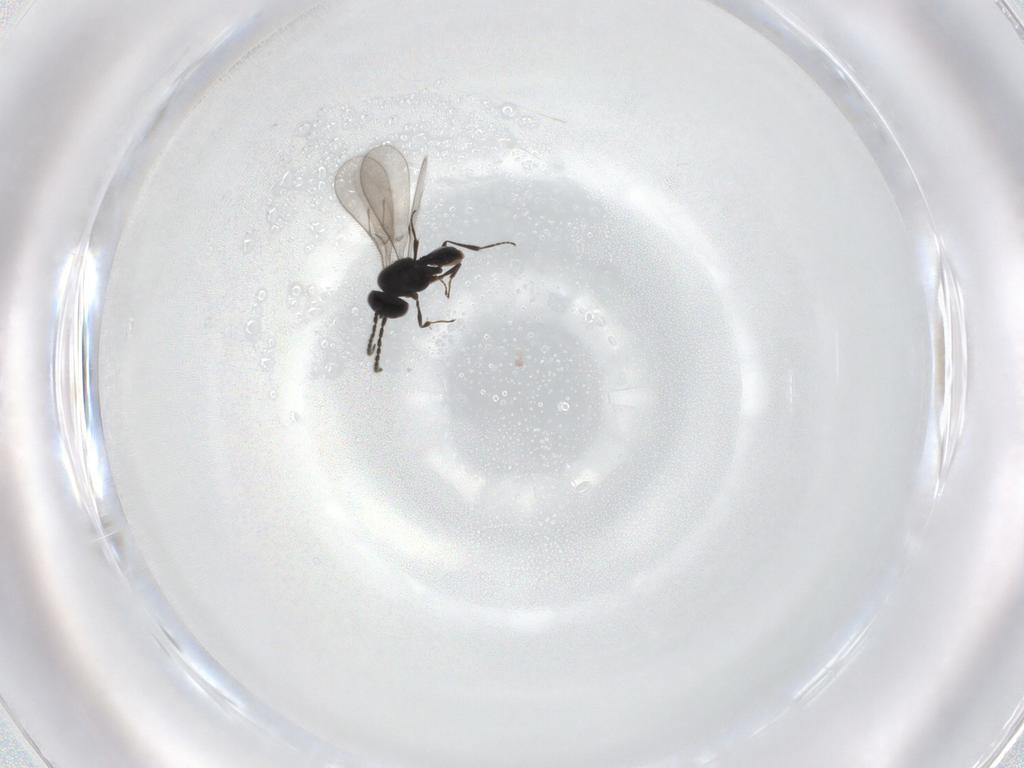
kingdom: Animalia
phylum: Arthropoda
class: Insecta
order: Hymenoptera
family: Scelionidae
